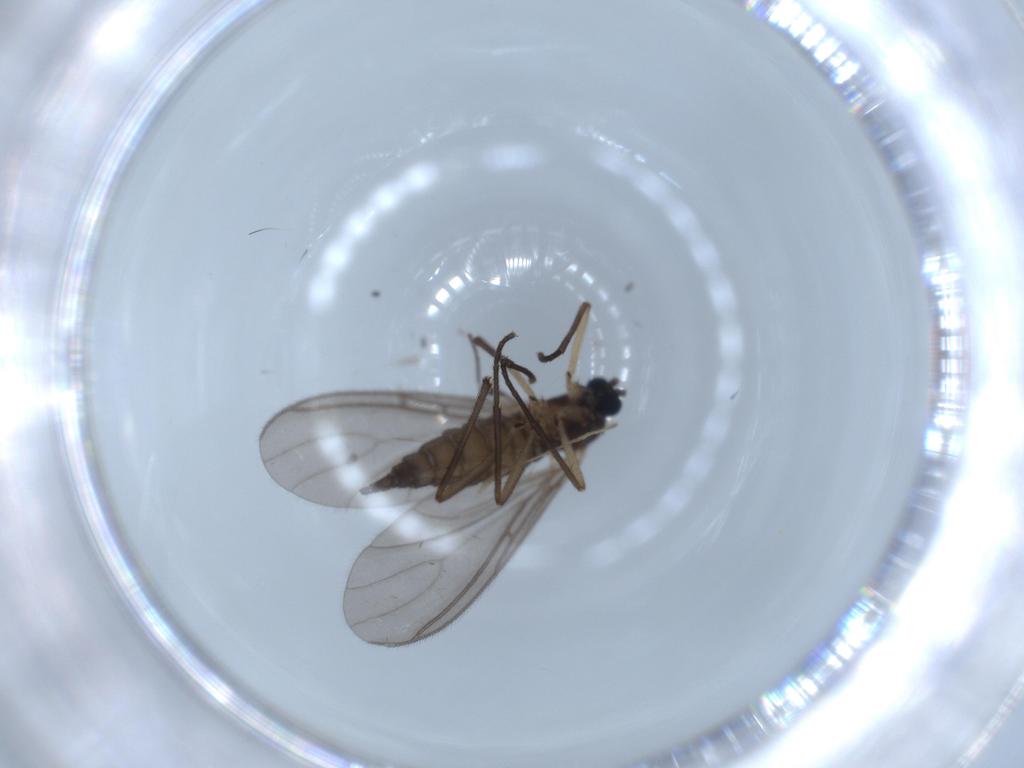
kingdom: Animalia
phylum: Arthropoda
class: Insecta
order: Diptera
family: Sciaridae
